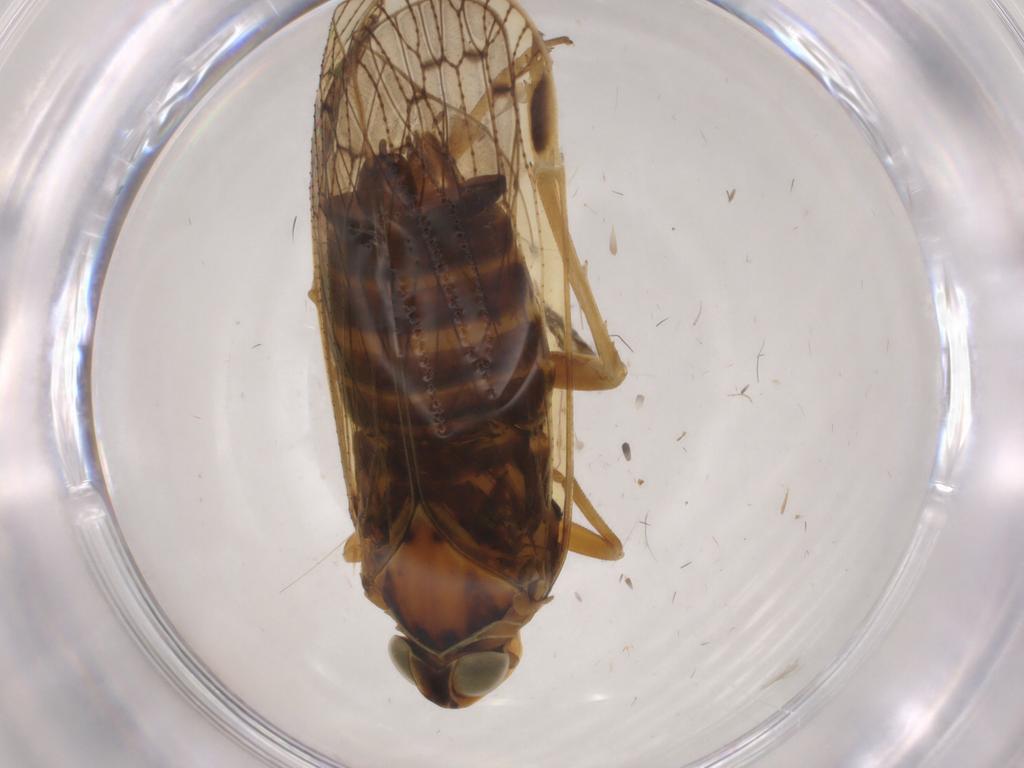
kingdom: Animalia
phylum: Arthropoda
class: Insecta
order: Hemiptera
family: Cixiidae
